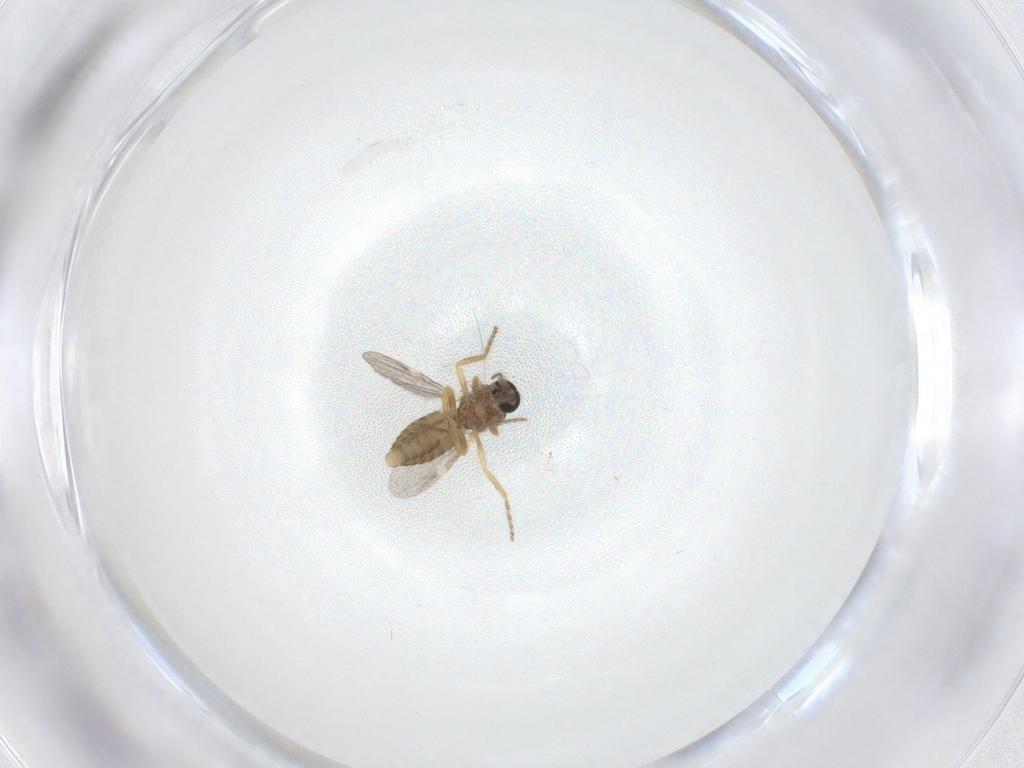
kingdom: Animalia
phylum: Arthropoda
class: Insecta
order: Diptera
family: Ceratopogonidae
